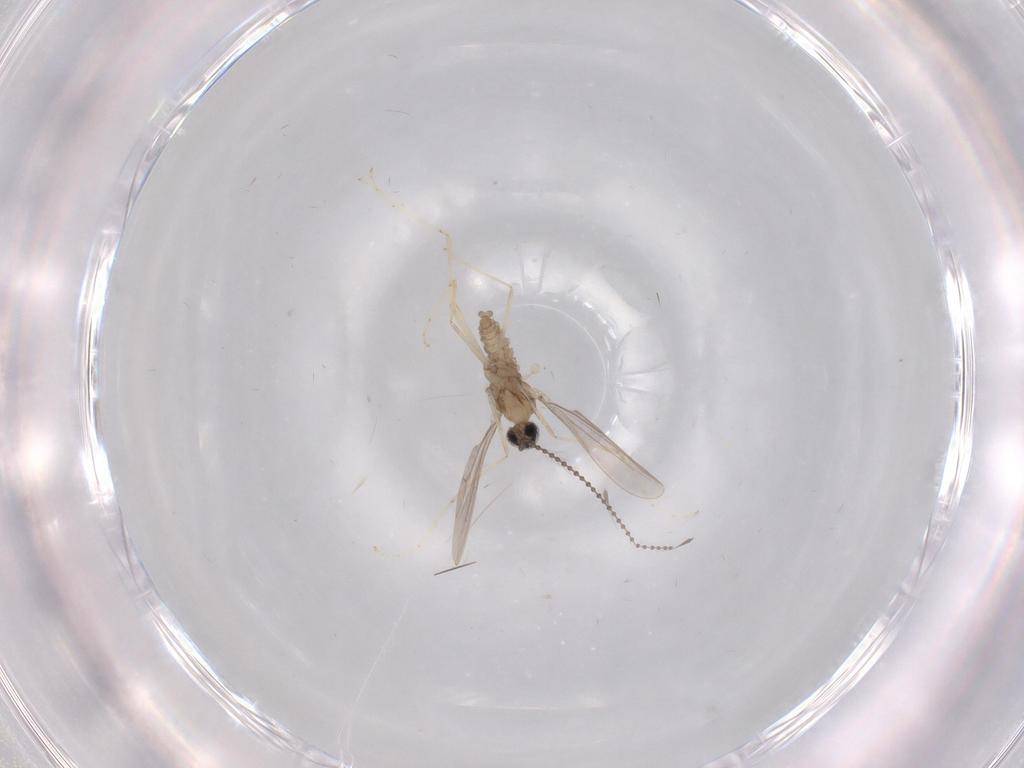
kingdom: Animalia
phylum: Arthropoda
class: Insecta
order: Diptera
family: Cecidomyiidae
